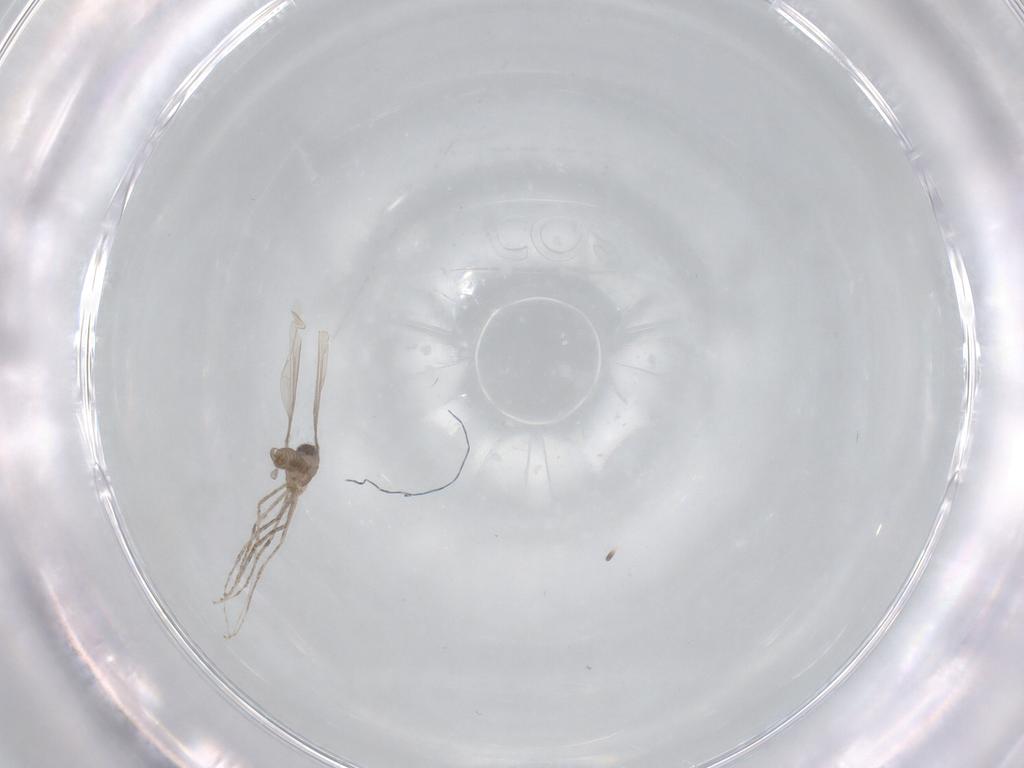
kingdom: Animalia
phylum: Arthropoda
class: Insecta
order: Diptera
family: Cecidomyiidae
